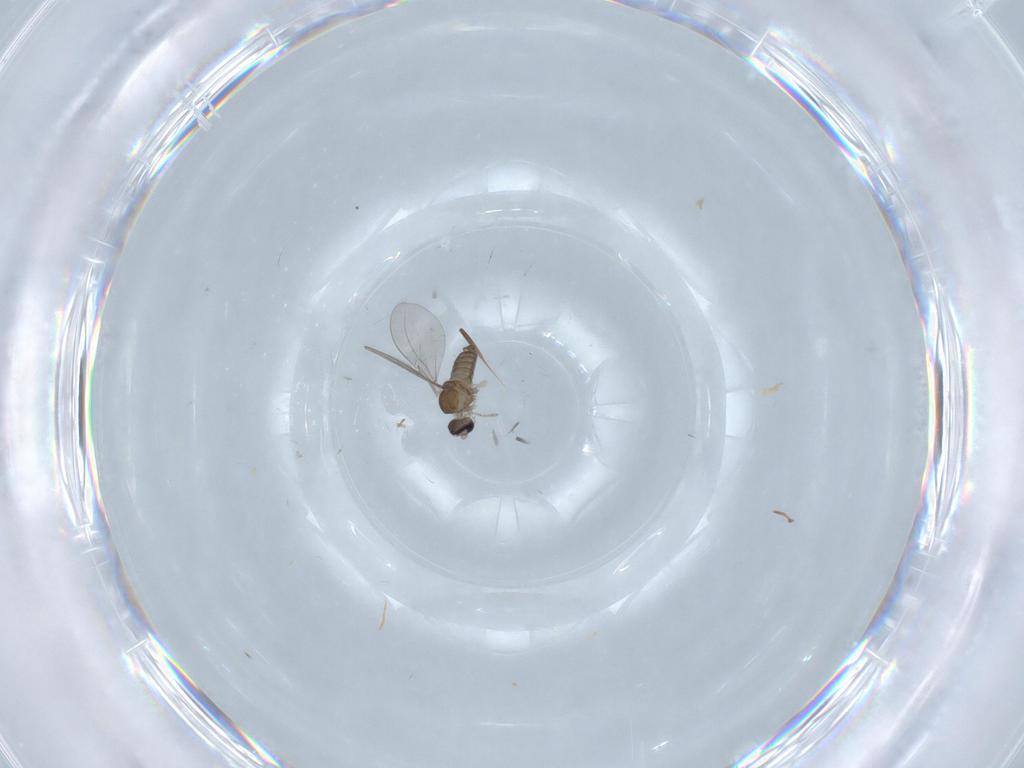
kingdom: Animalia
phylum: Arthropoda
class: Insecta
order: Diptera
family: Cecidomyiidae
